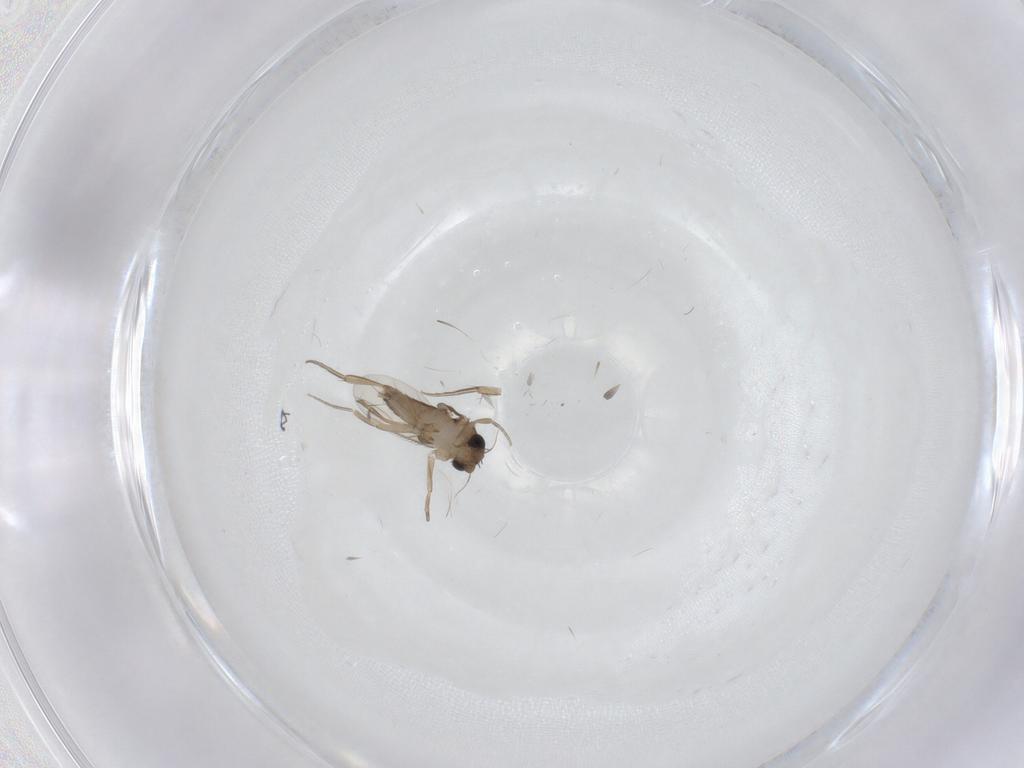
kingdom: Animalia
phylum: Arthropoda
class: Insecta
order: Diptera
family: Phoridae
